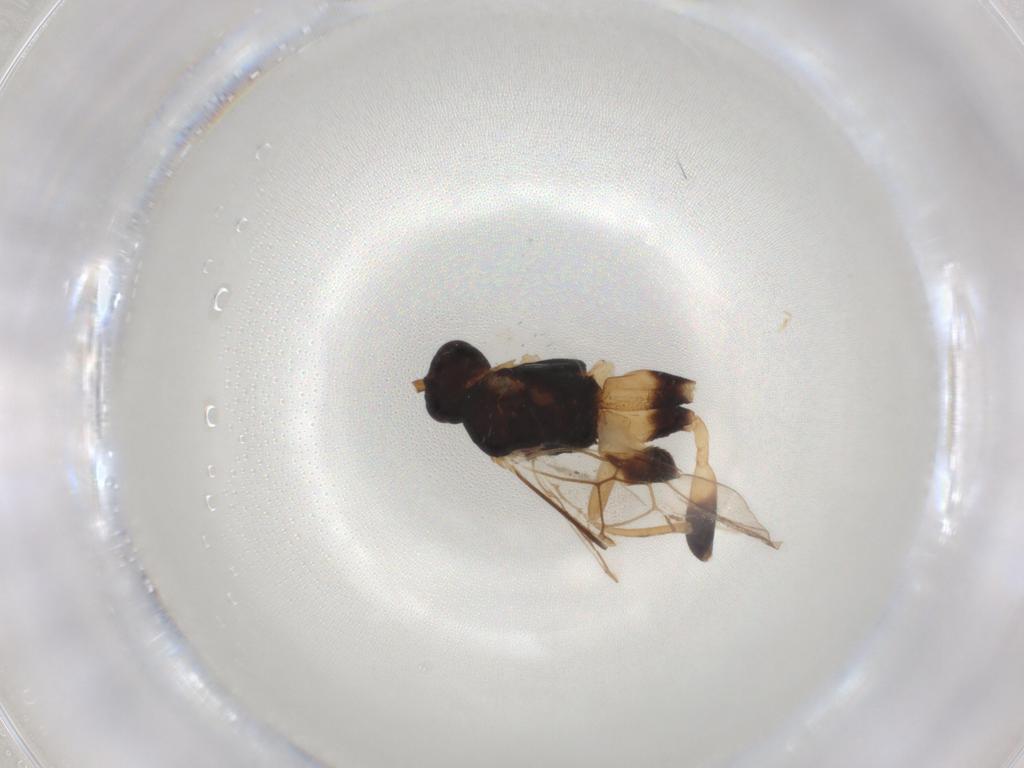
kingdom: Animalia
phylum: Arthropoda
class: Insecta
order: Hymenoptera
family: Braconidae
